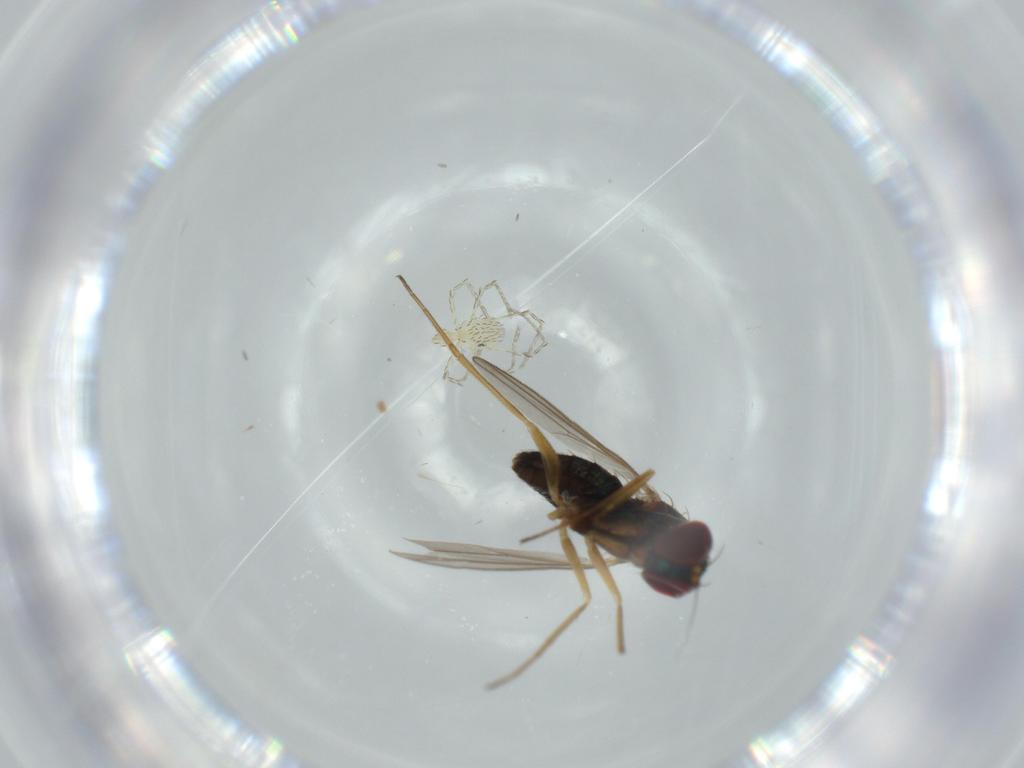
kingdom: Animalia
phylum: Arthropoda
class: Arachnida
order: Trombidiformes
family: Erythraeidae
